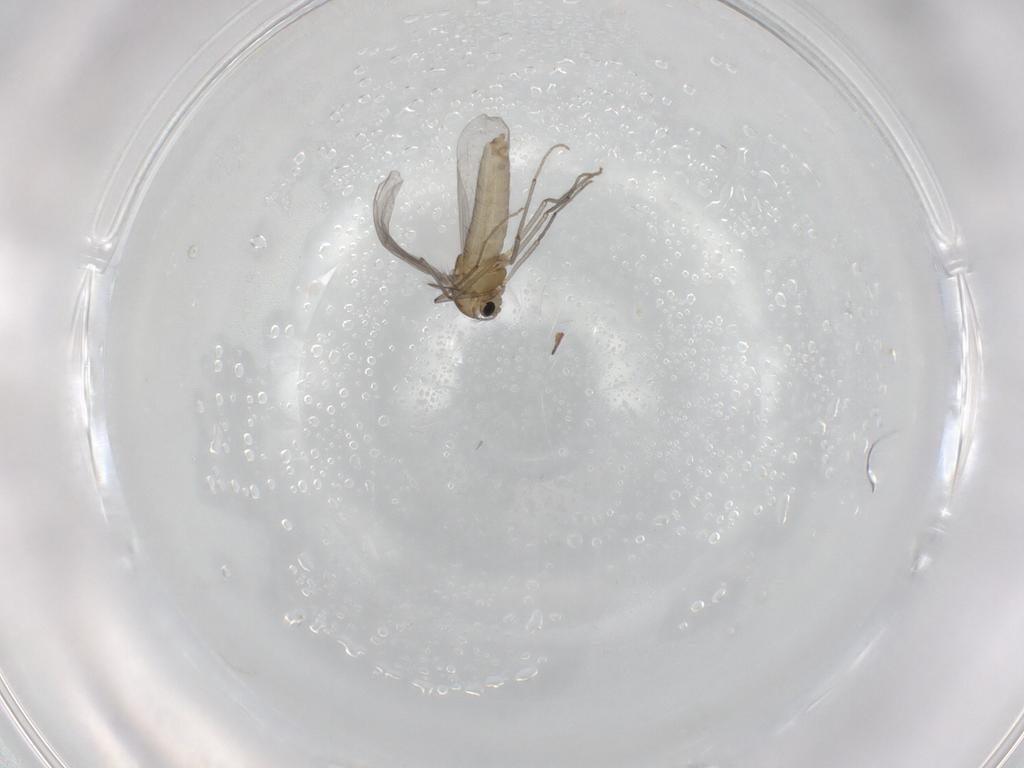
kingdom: Animalia
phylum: Arthropoda
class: Insecta
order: Diptera
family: Chironomidae
